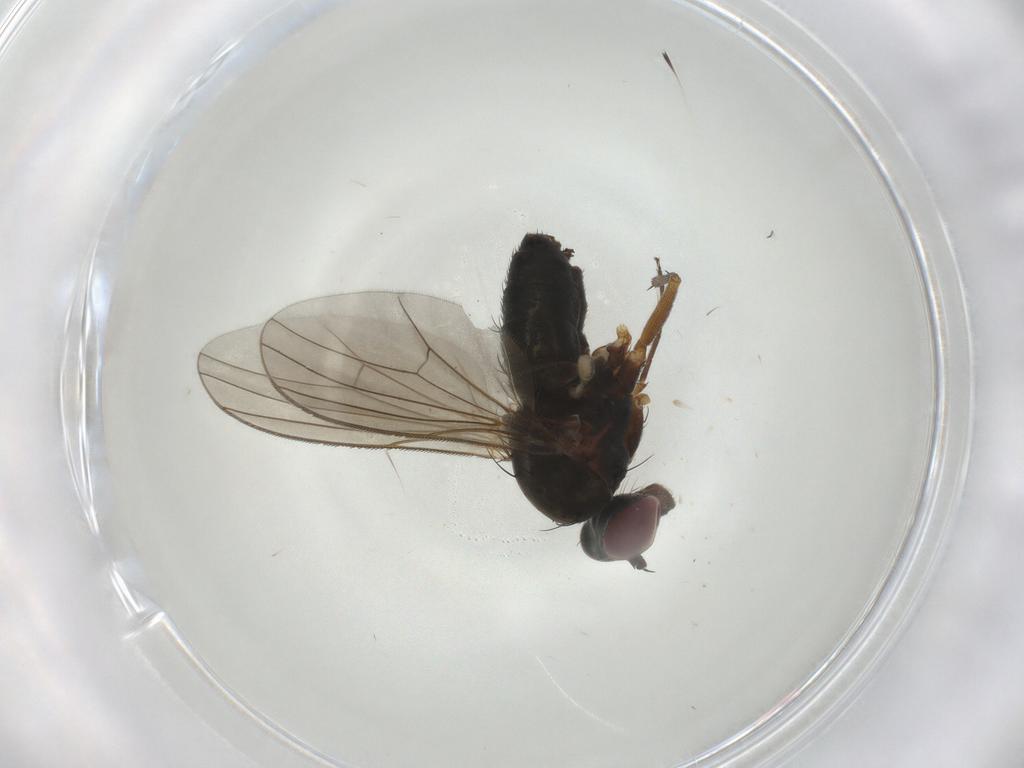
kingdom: Animalia
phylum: Arthropoda
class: Insecta
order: Diptera
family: Dolichopodidae
